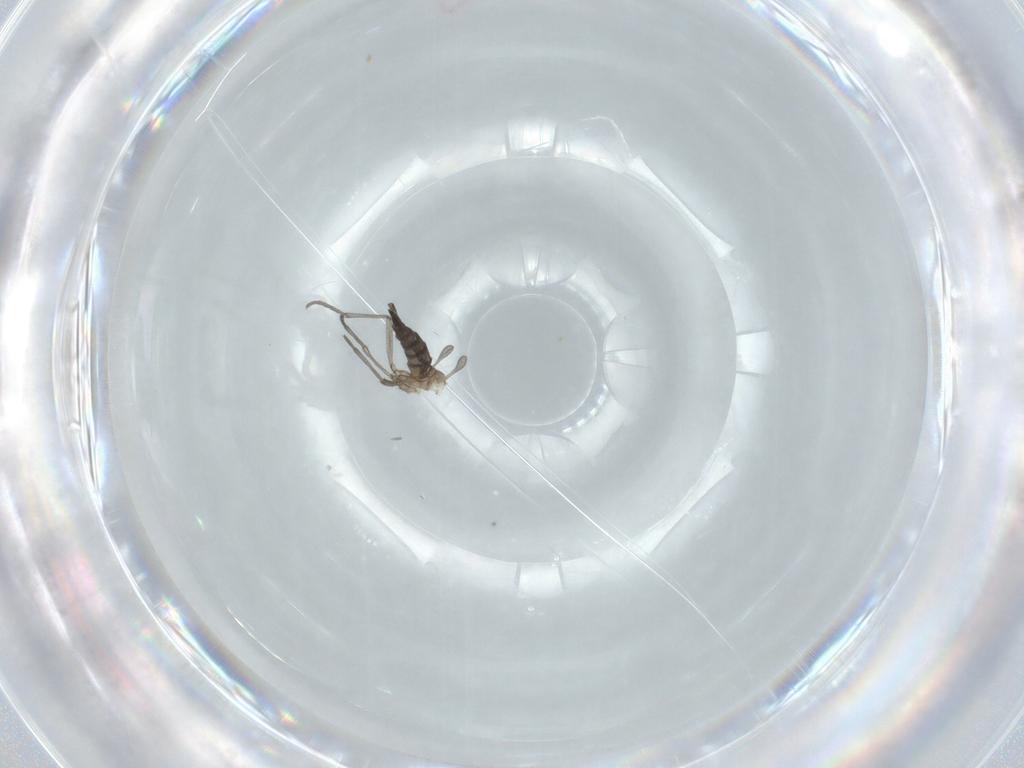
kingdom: Animalia
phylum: Arthropoda
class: Insecta
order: Diptera
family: Sciaridae
